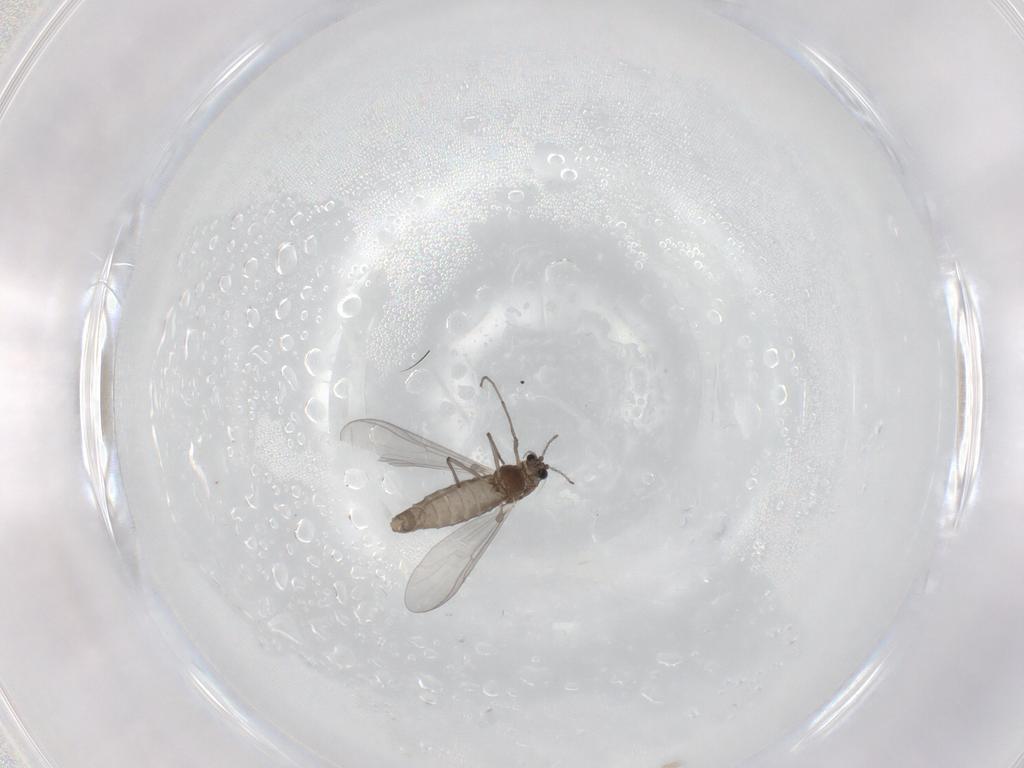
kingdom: Animalia
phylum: Arthropoda
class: Insecta
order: Diptera
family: Chironomidae
